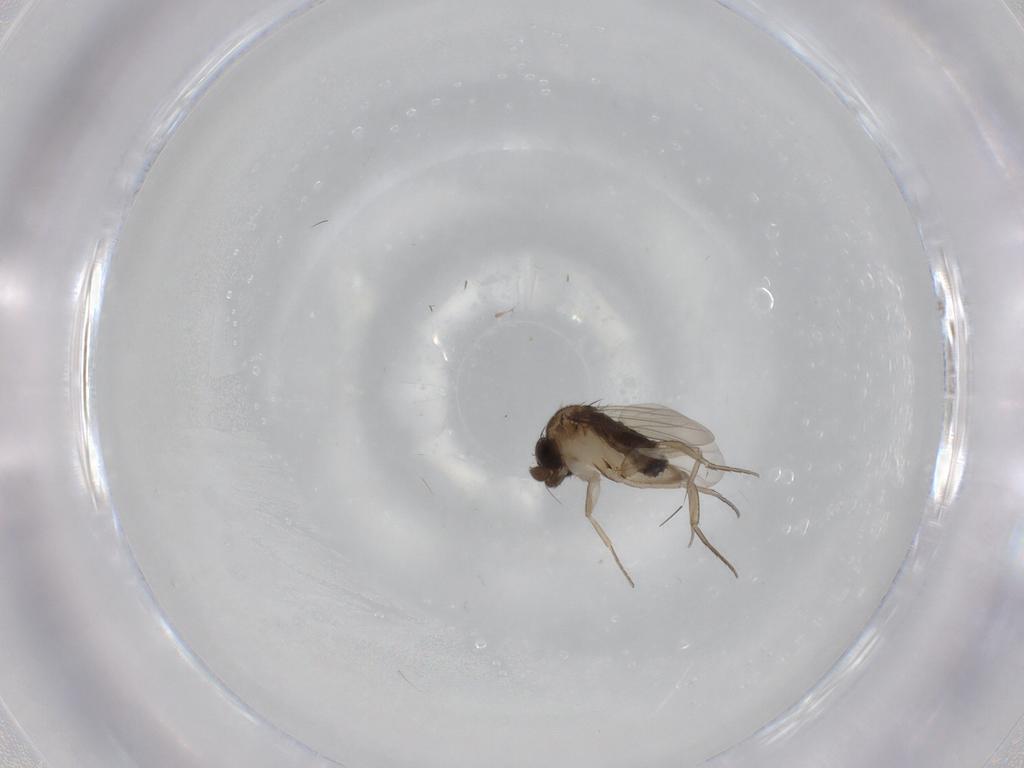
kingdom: Animalia
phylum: Arthropoda
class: Insecta
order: Diptera
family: Phoridae
